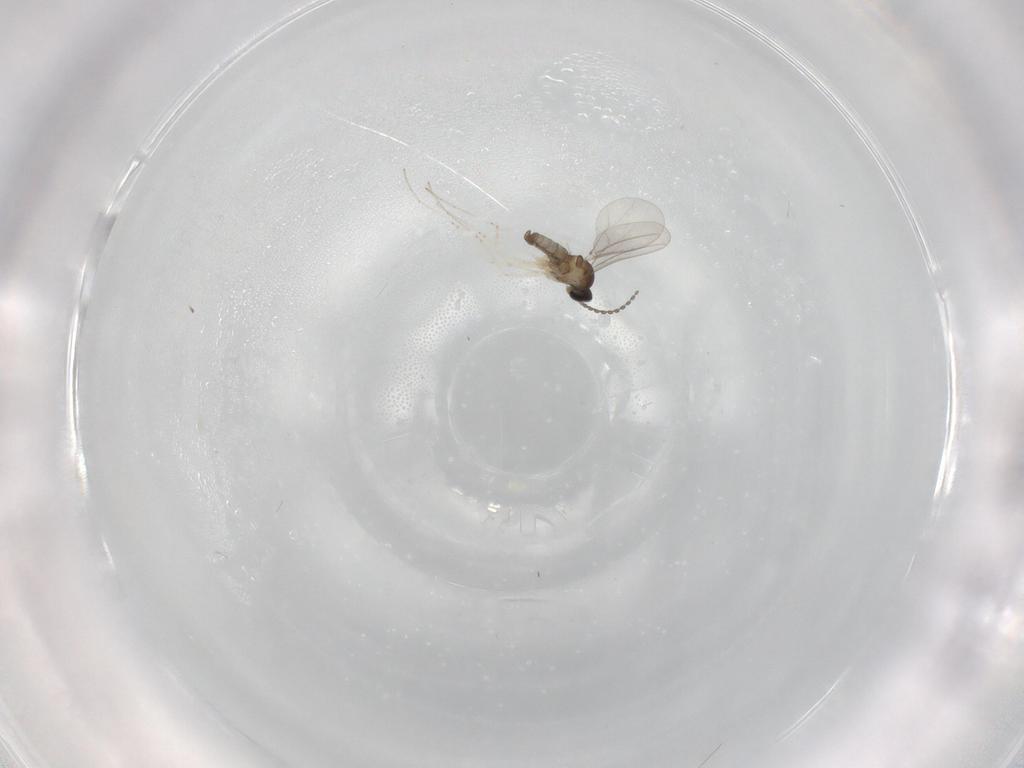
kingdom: Animalia
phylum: Arthropoda
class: Insecta
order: Diptera
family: Cecidomyiidae
